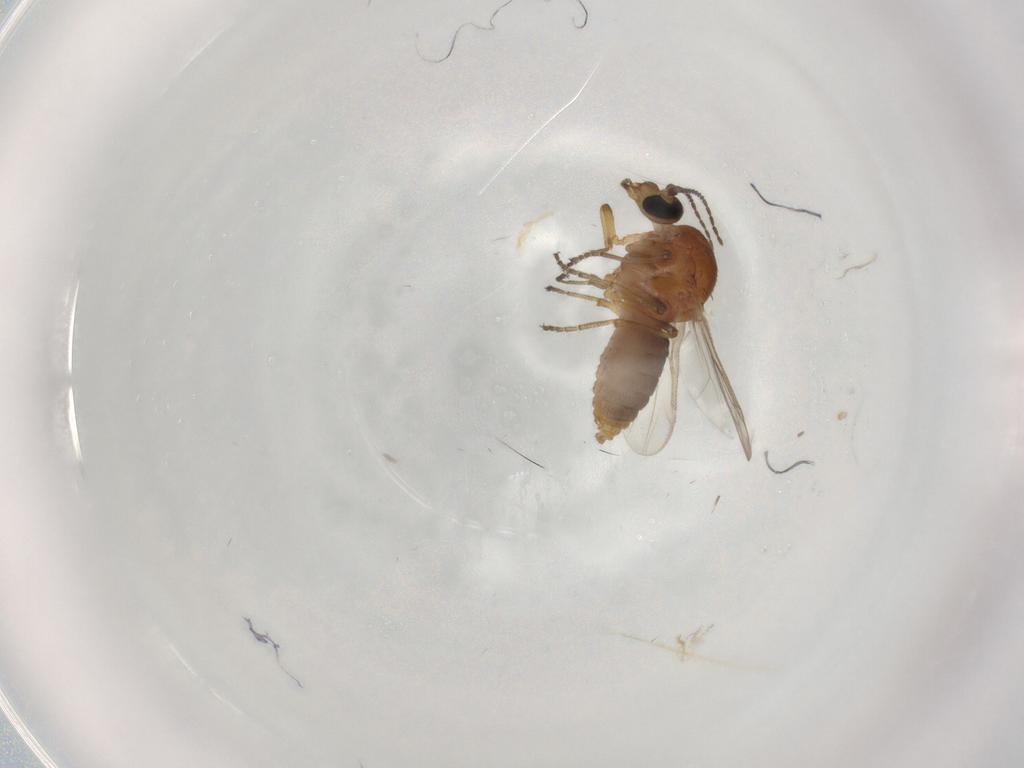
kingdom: Animalia
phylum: Arthropoda
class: Insecta
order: Diptera
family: Ceratopogonidae
